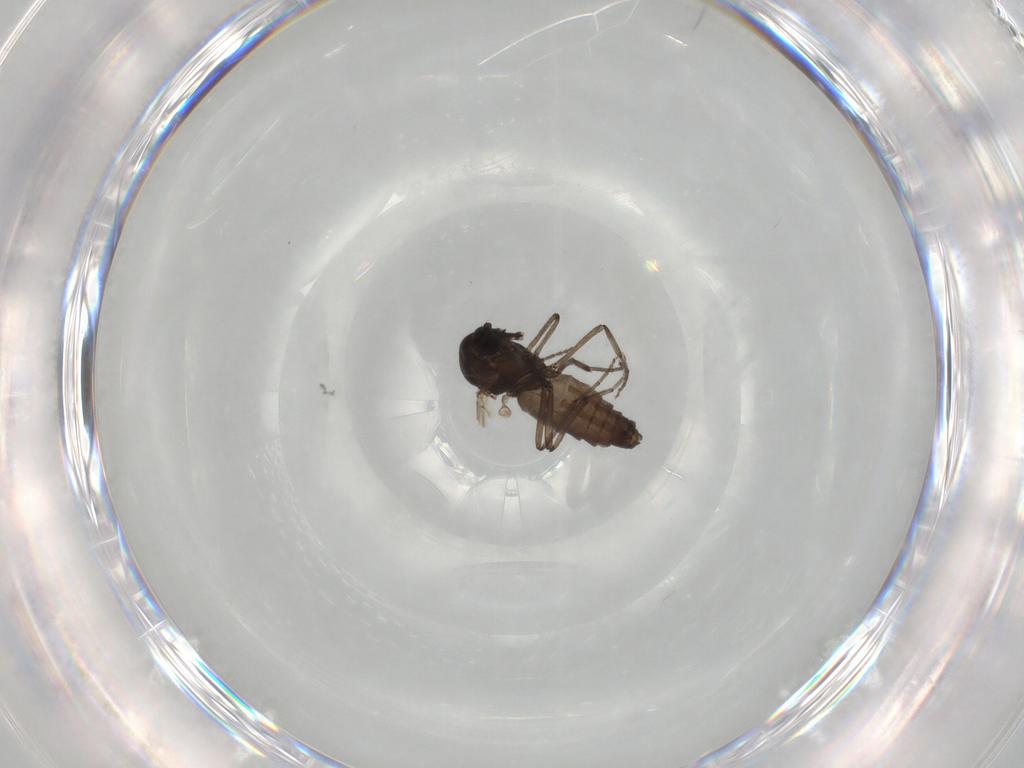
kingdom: Animalia
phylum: Arthropoda
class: Insecta
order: Diptera
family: Ceratopogonidae
